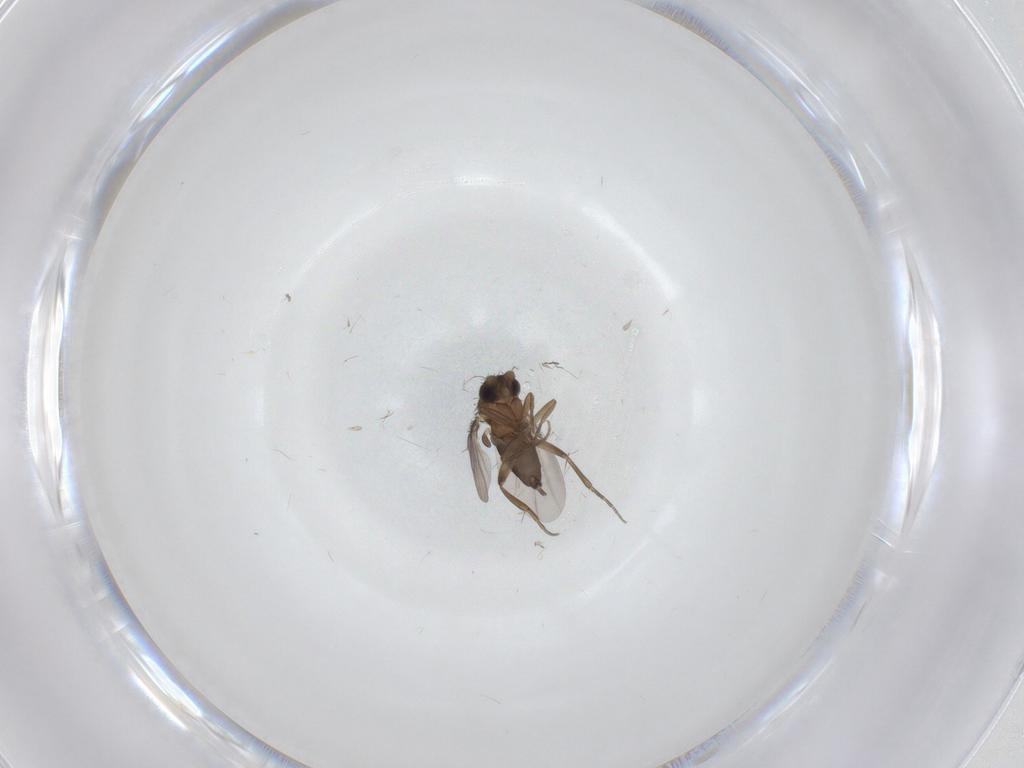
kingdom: Animalia
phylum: Arthropoda
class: Insecta
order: Diptera
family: Phoridae
